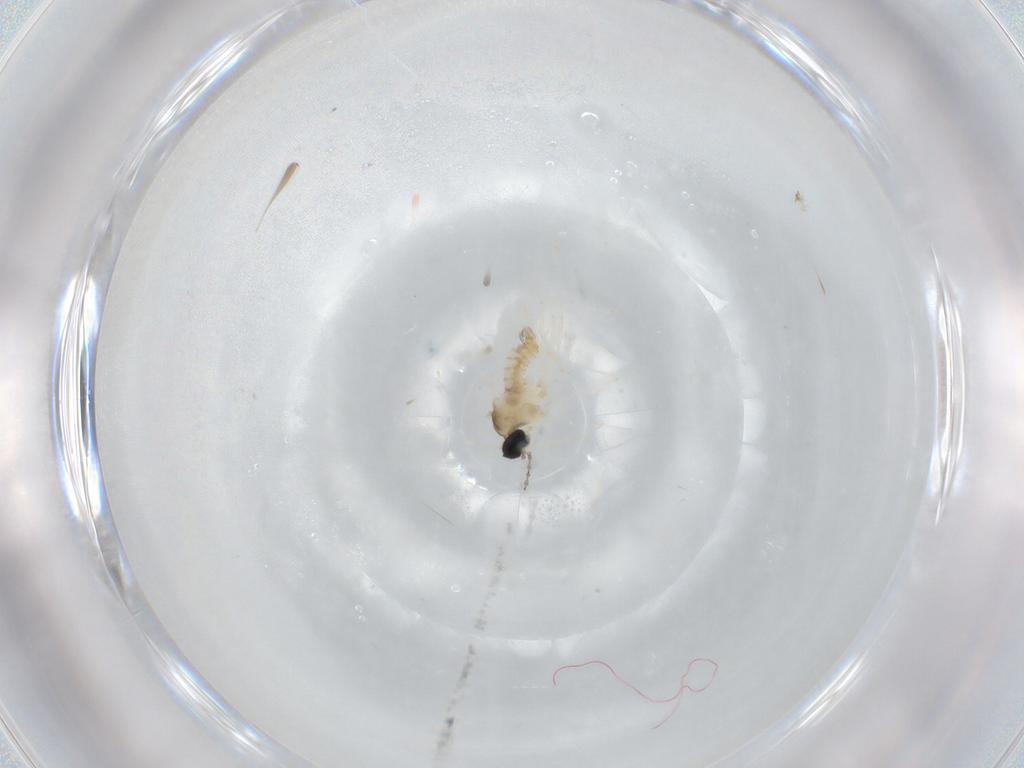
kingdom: Animalia
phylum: Arthropoda
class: Insecta
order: Diptera
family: Cecidomyiidae
